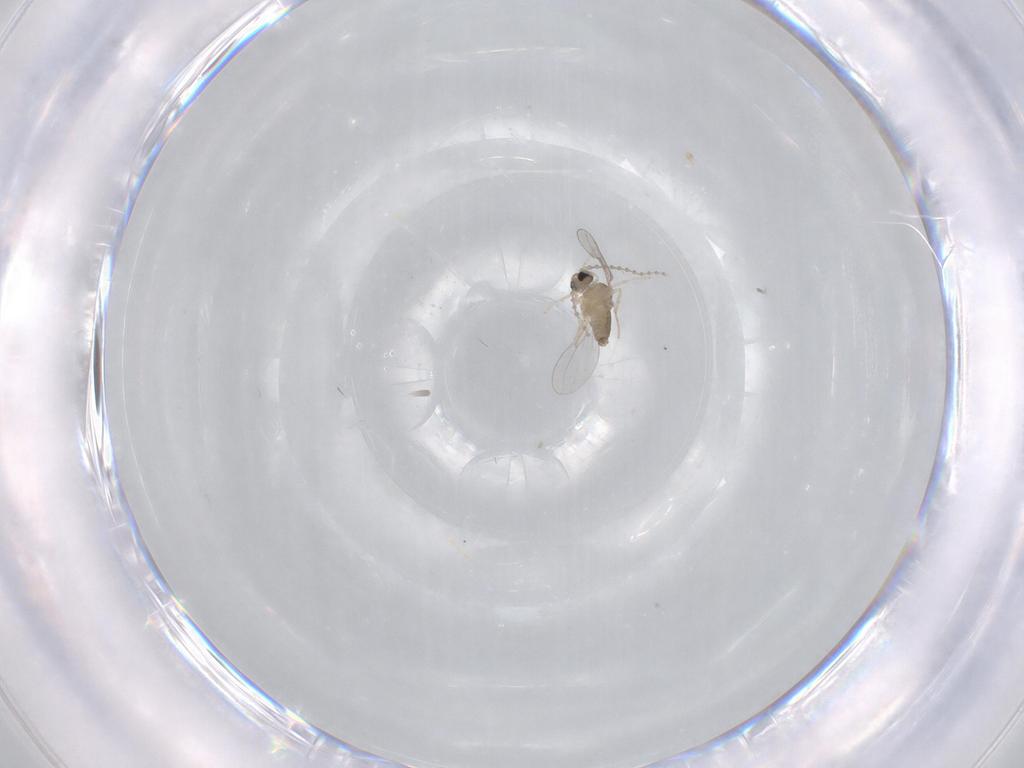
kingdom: Animalia
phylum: Arthropoda
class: Insecta
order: Diptera
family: Cecidomyiidae
